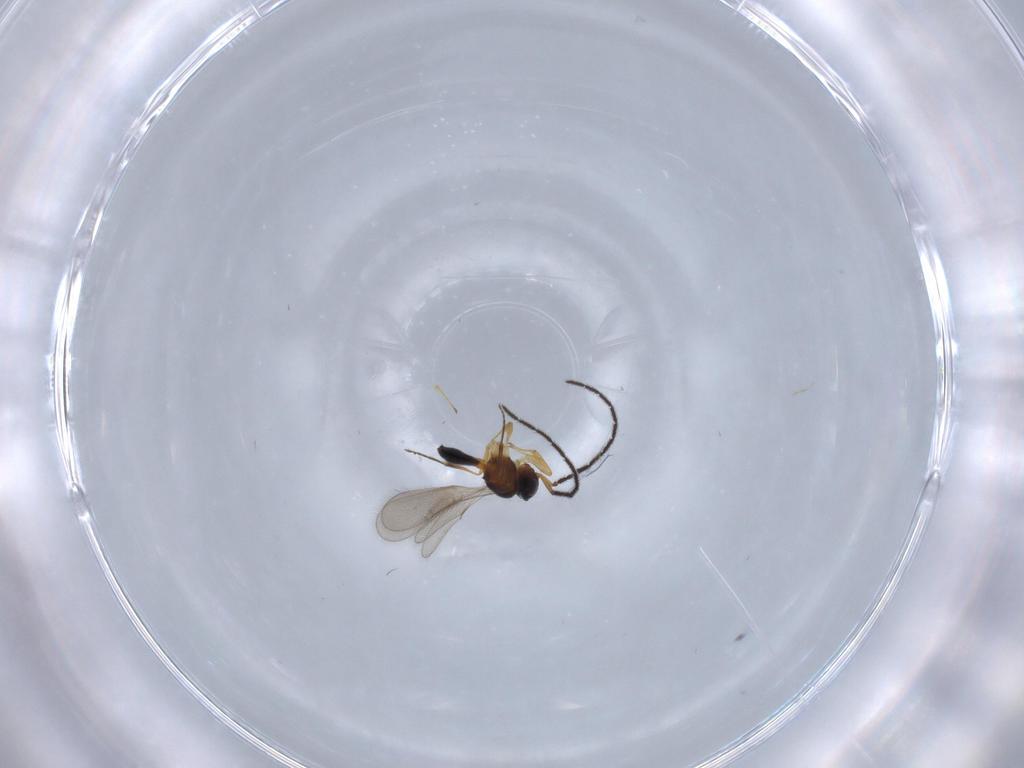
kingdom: Animalia
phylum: Arthropoda
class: Insecta
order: Hymenoptera
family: Scelionidae
